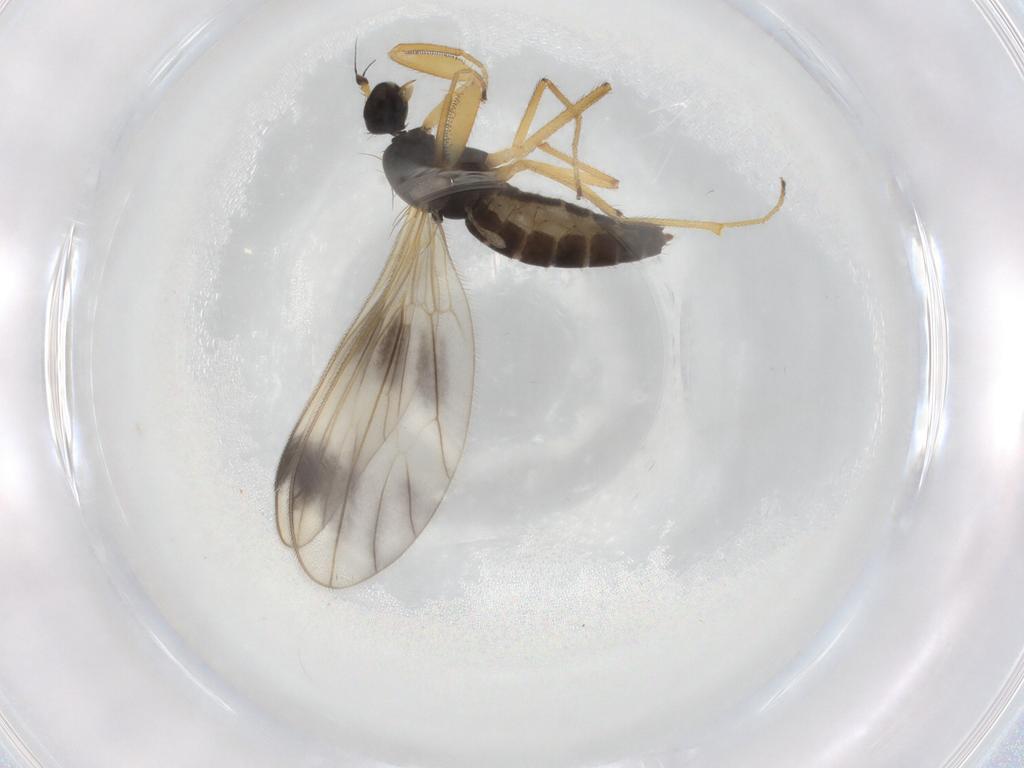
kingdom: Animalia
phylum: Arthropoda
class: Insecta
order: Diptera
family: Empididae
